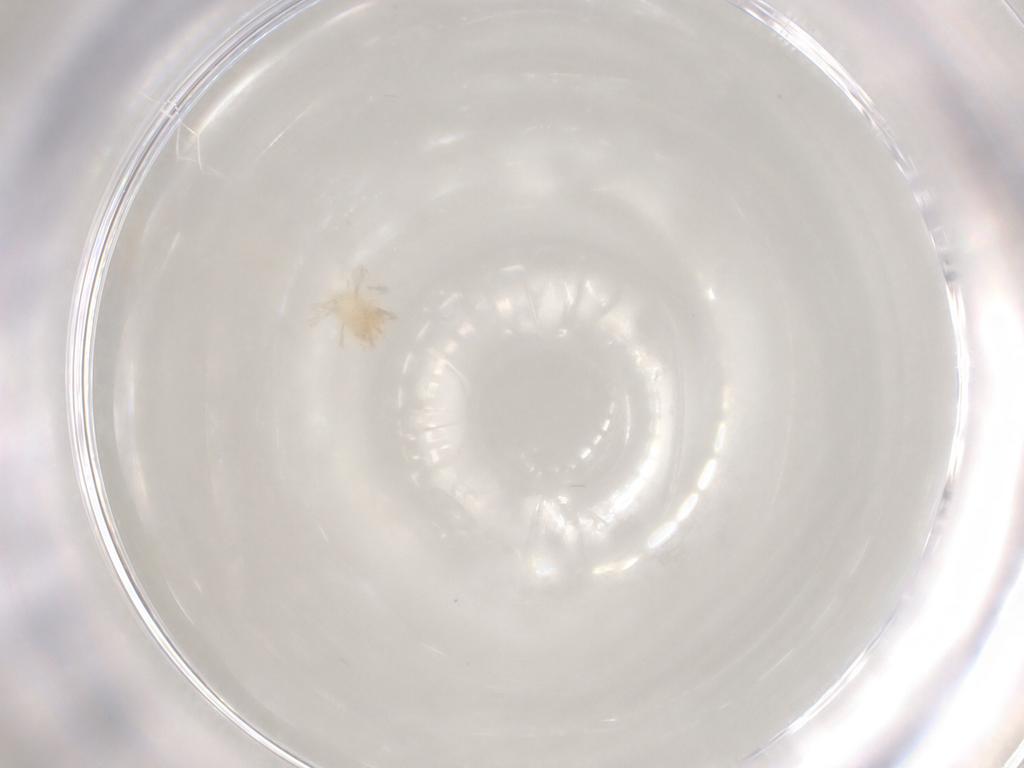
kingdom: Animalia
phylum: Arthropoda
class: Arachnida
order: Trombidiformes
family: Anystidae
